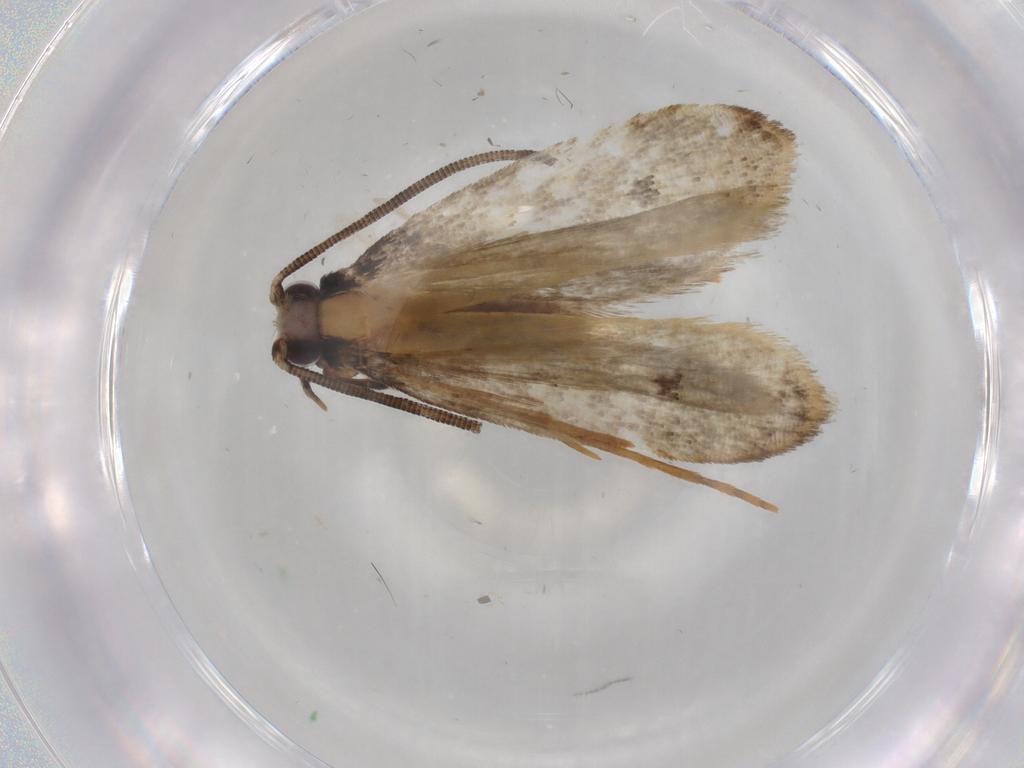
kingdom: Animalia
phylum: Arthropoda
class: Insecta
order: Lepidoptera
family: Tineidae
